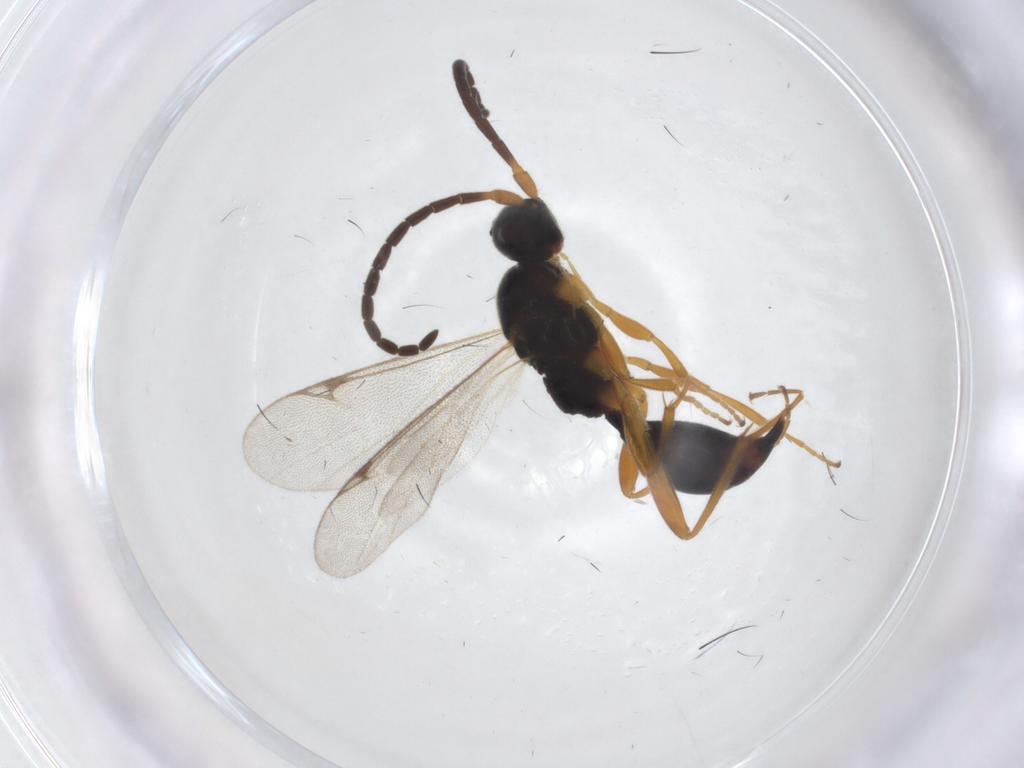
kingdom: Animalia
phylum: Arthropoda
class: Insecta
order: Hymenoptera
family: Proctotrupidae
